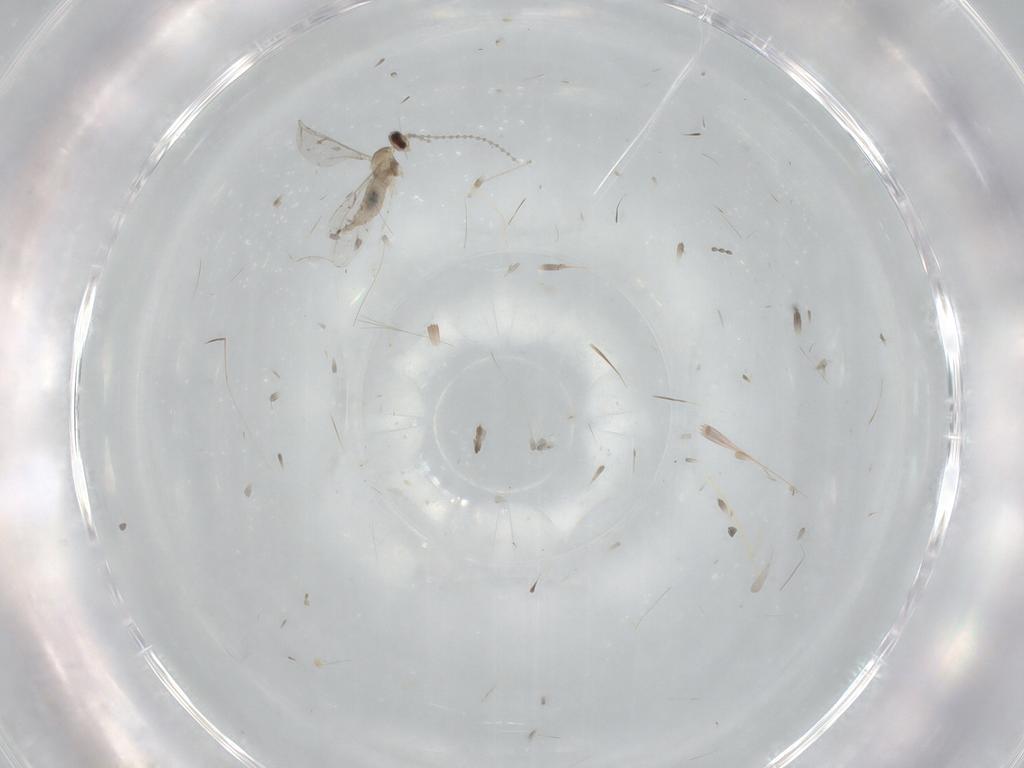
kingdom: Animalia
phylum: Arthropoda
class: Insecta
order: Diptera
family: Cecidomyiidae
